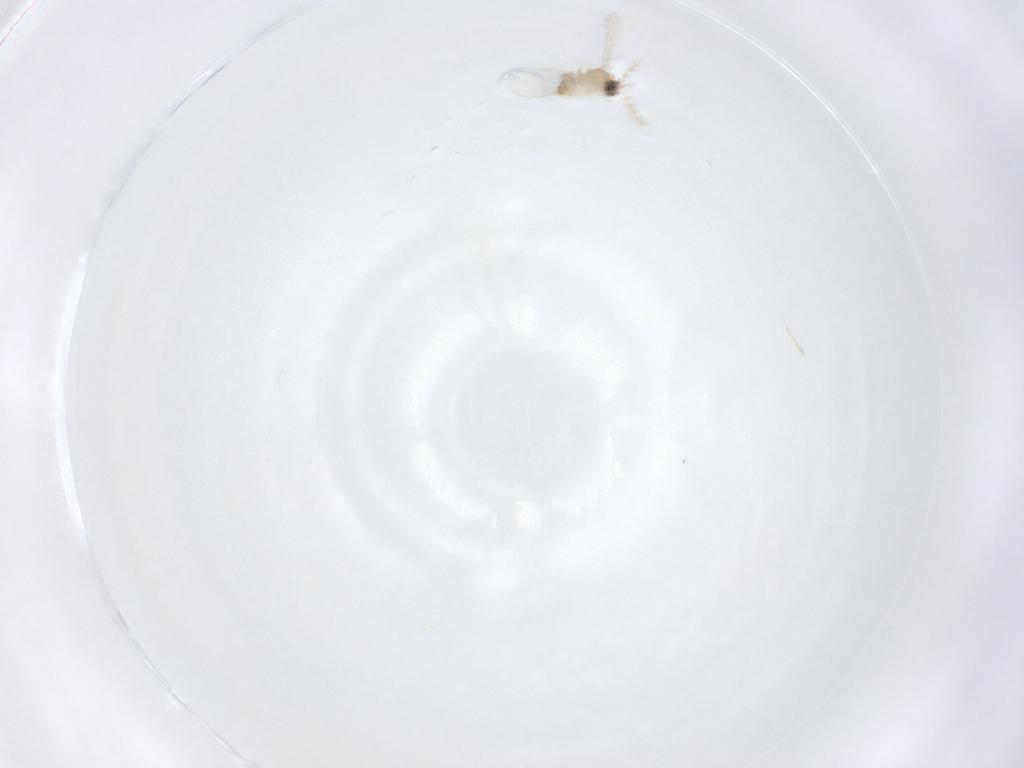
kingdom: Animalia
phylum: Arthropoda
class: Insecta
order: Diptera
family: Cecidomyiidae
